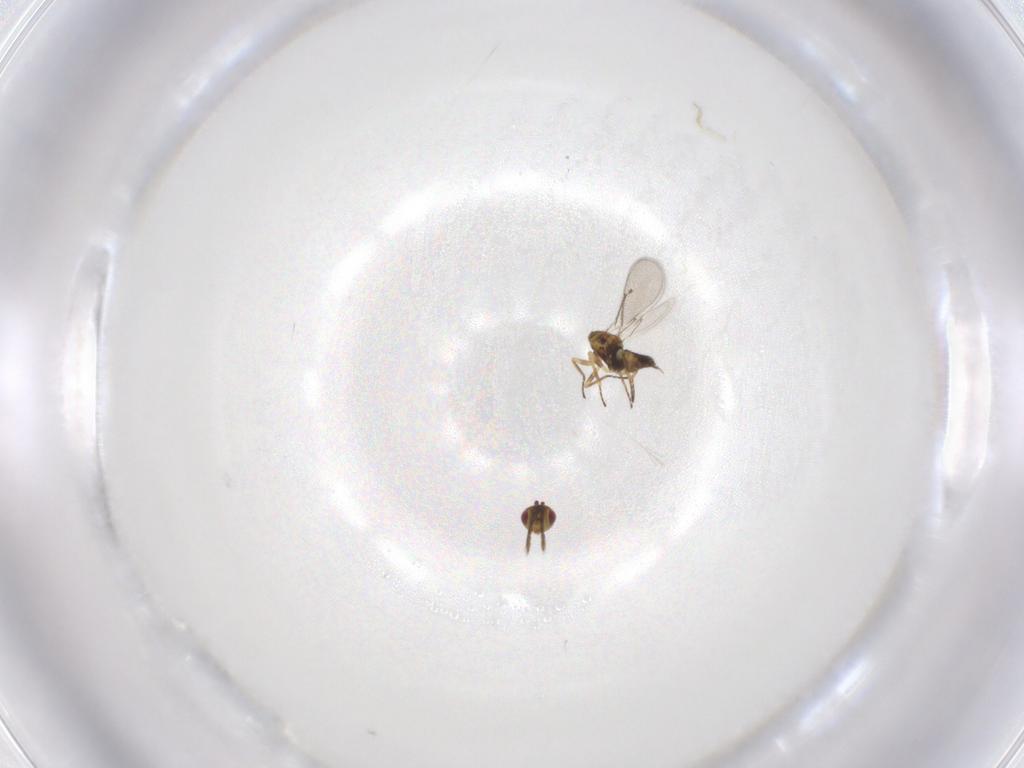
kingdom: Animalia
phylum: Arthropoda
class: Insecta
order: Hymenoptera
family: Eulophidae
